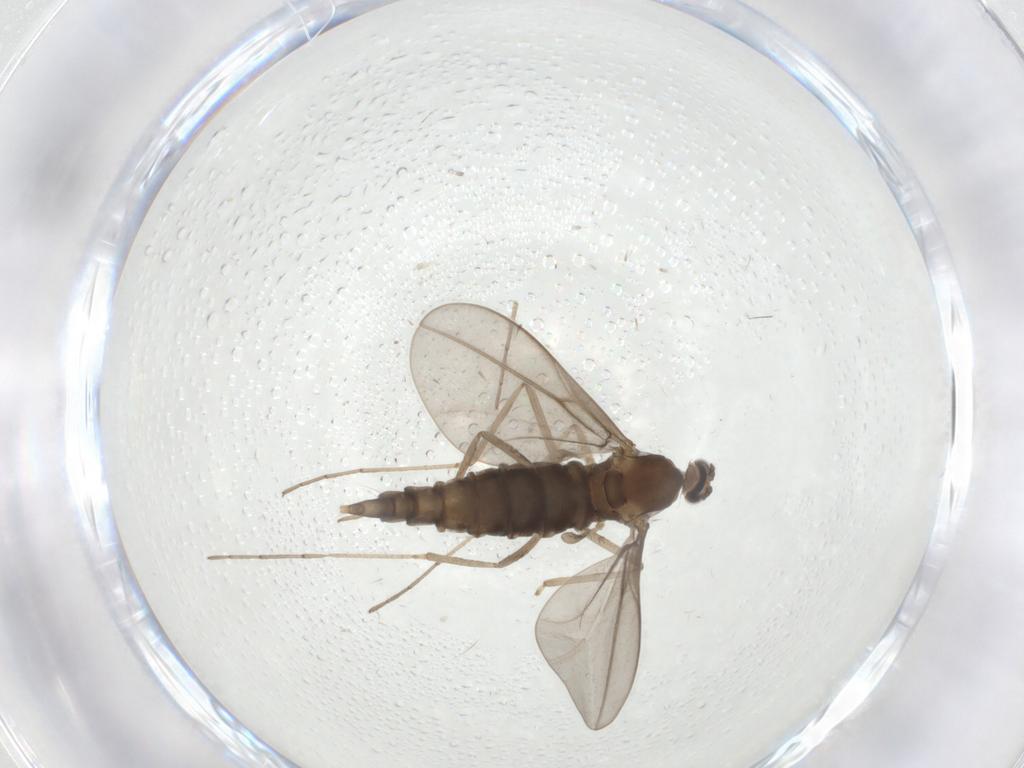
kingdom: Animalia
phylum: Arthropoda
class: Insecta
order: Diptera
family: Cecidomyiidae
